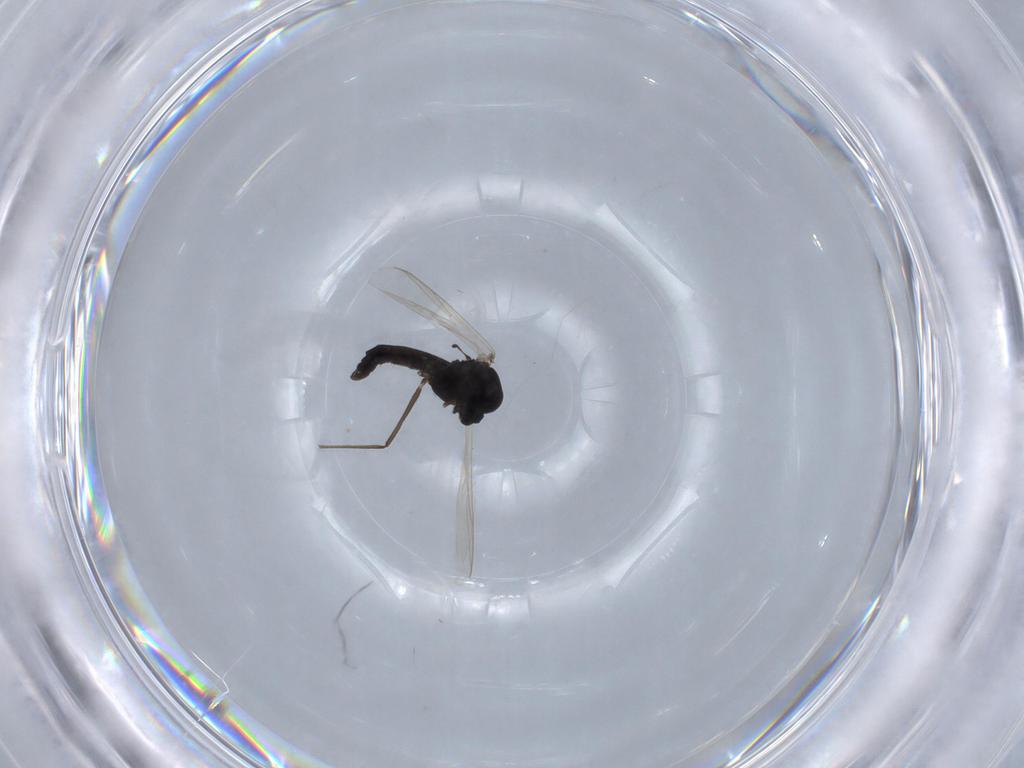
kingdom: Animalia
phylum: Arthropoda
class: Insecta
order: Diptera
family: Chironomidae
